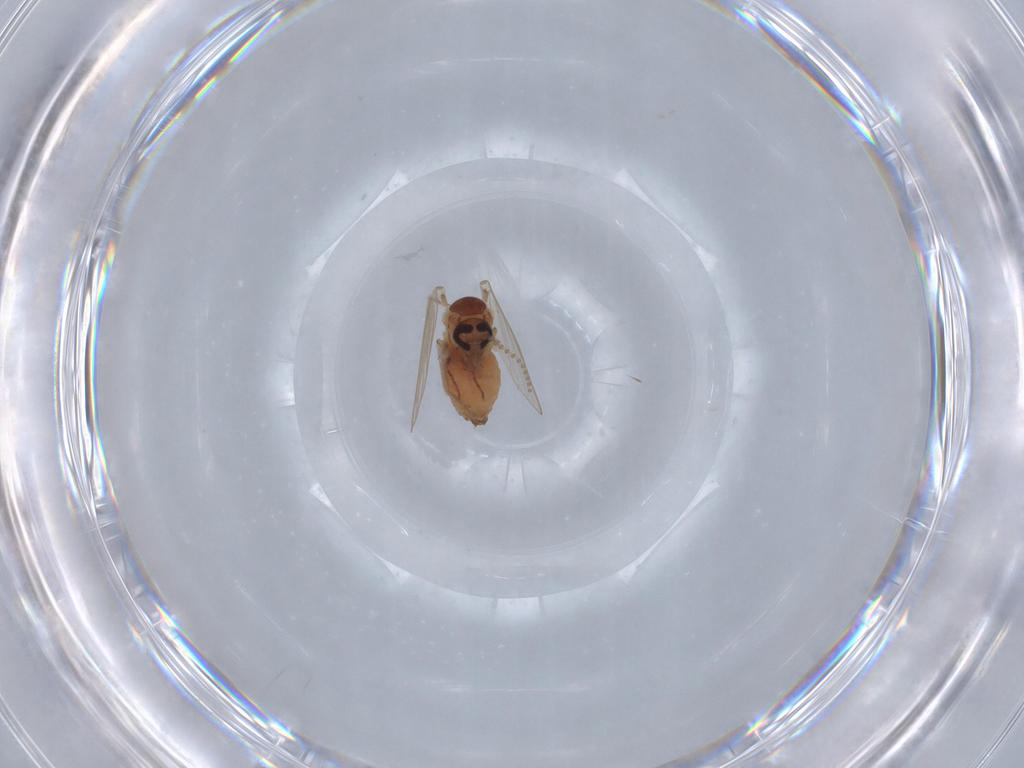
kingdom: Animalia
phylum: Arthropoda
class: Insecta
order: Diptera
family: Psychodidae
